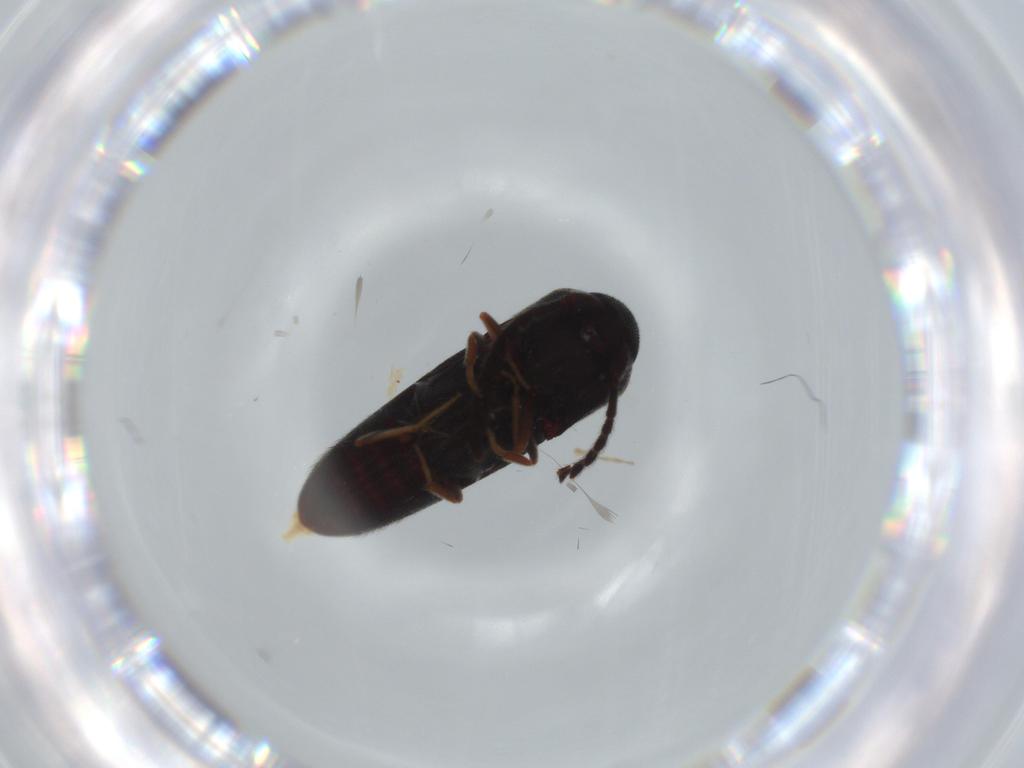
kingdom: Animalia
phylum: Arthropoda
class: Insecta
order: Coleoptera
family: Eucnemidae
